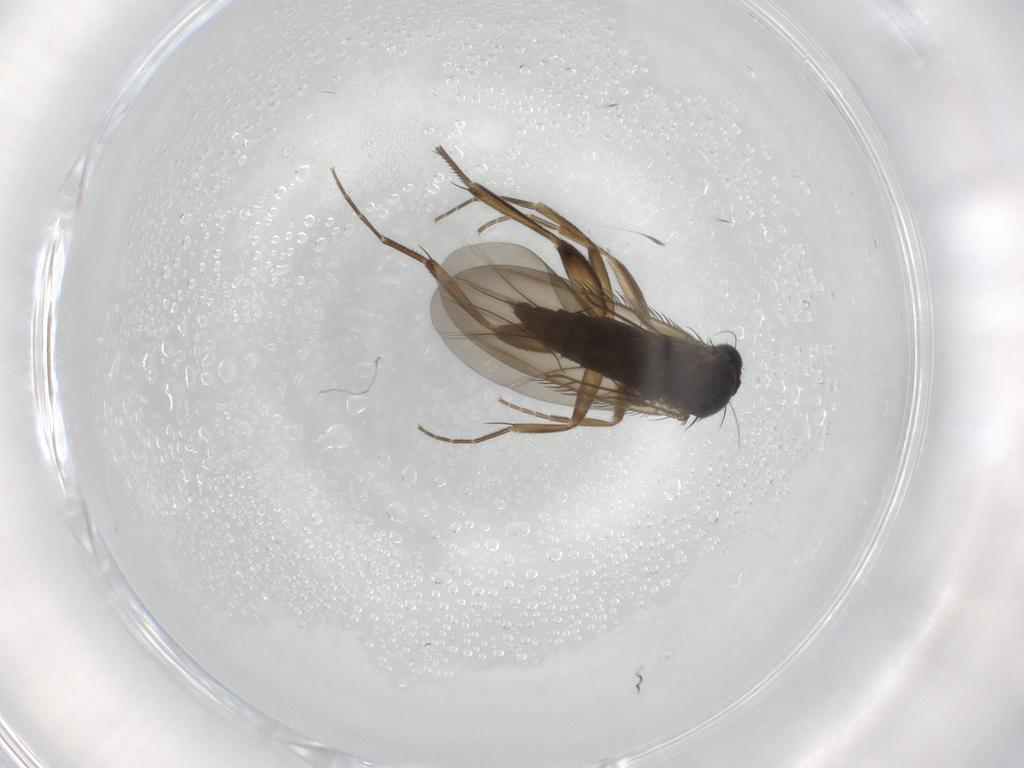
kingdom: Animalia
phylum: Arthropoda
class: Insecta
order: Diptera
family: Phoridae
